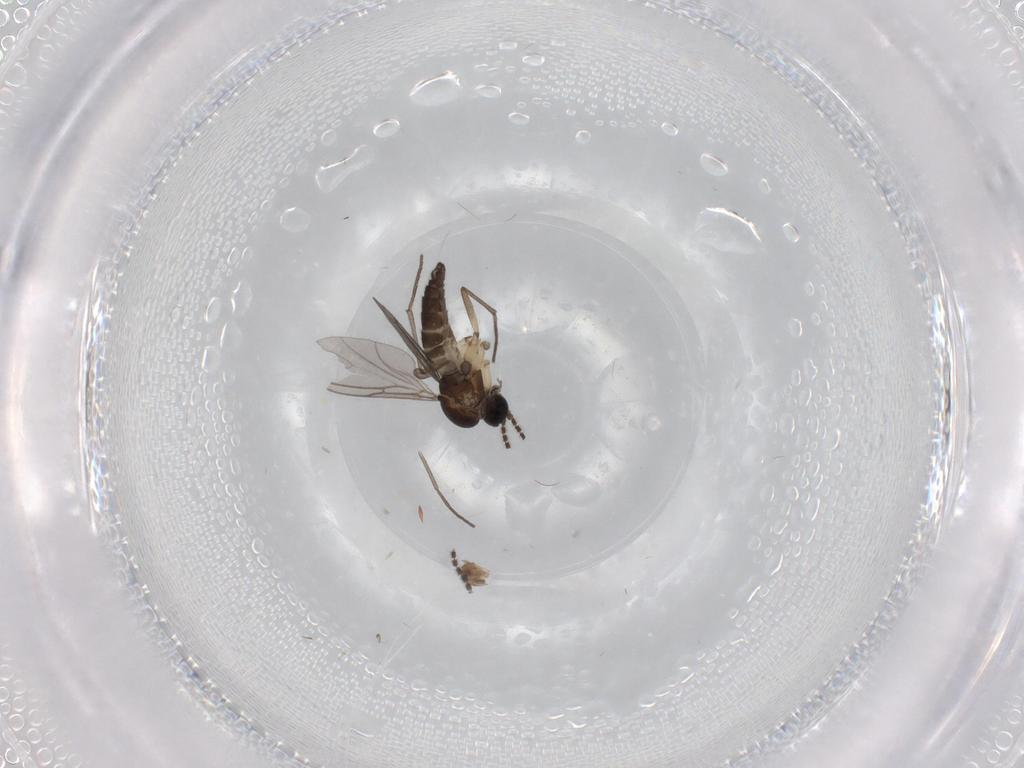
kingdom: Animalia
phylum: Arthropoda
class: Insecta
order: Diptera
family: Sciaridae
